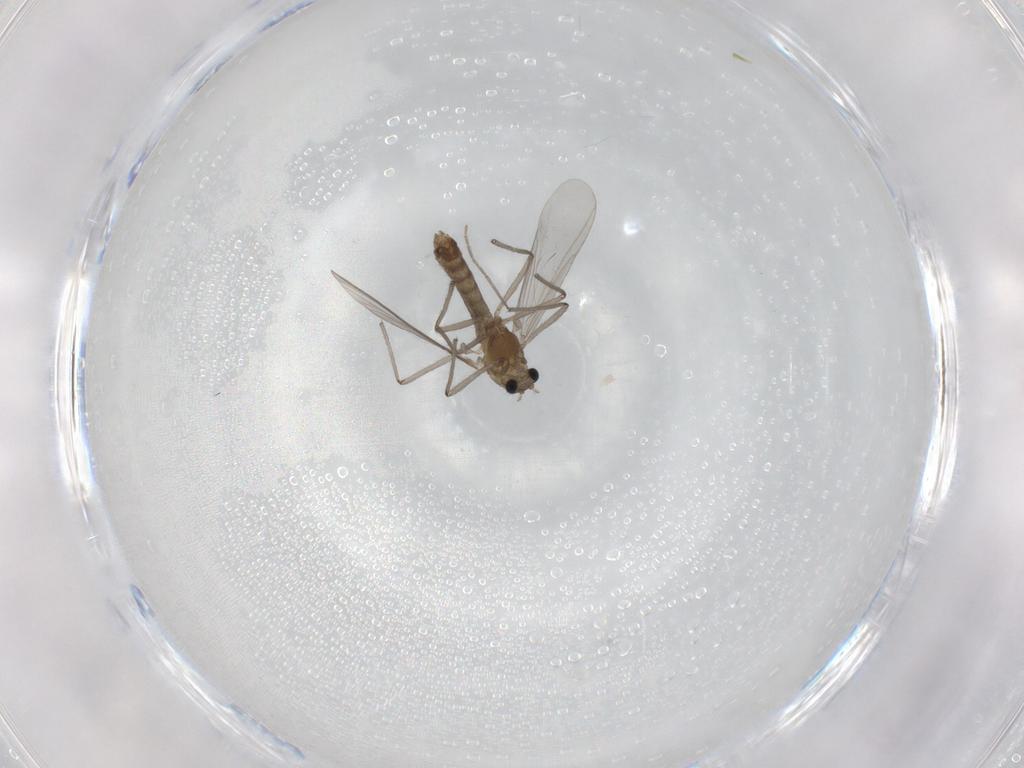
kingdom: Animalia
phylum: Arthropoda
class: Insecta
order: Diptera
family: Chironomidae
